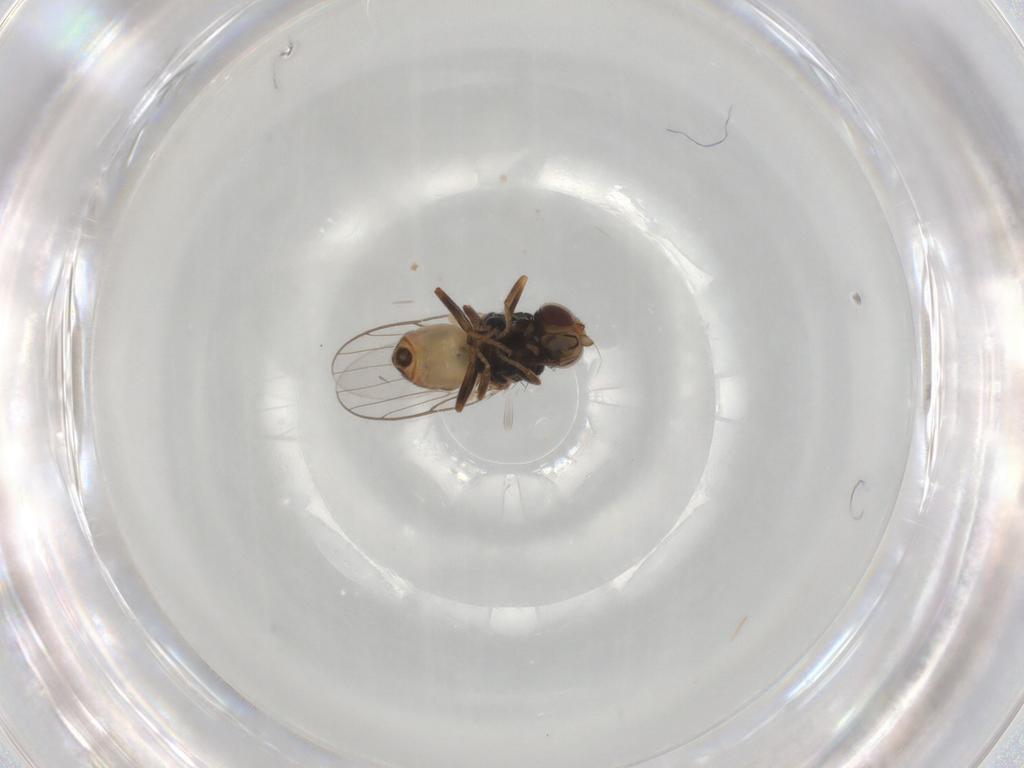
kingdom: Animalia
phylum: Arthropoda
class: Insecta
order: Diptera
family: Chloropidae
